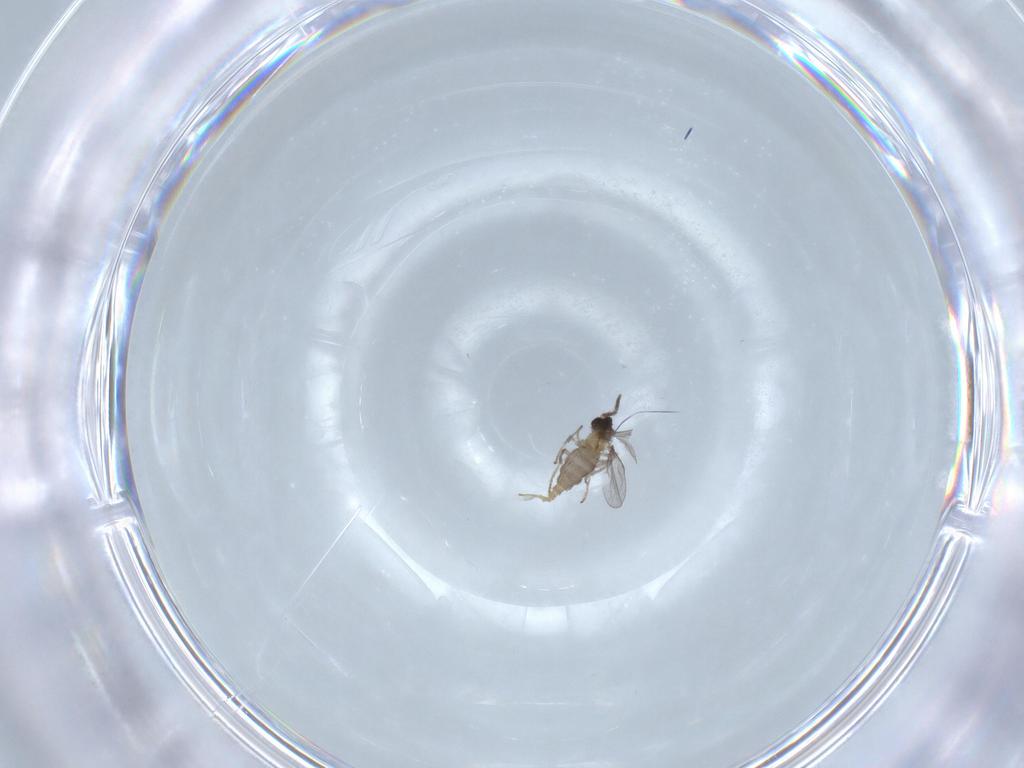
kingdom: Animalia
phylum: Arthropoda
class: Insecta
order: Diptera
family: Cecidomyiidae
